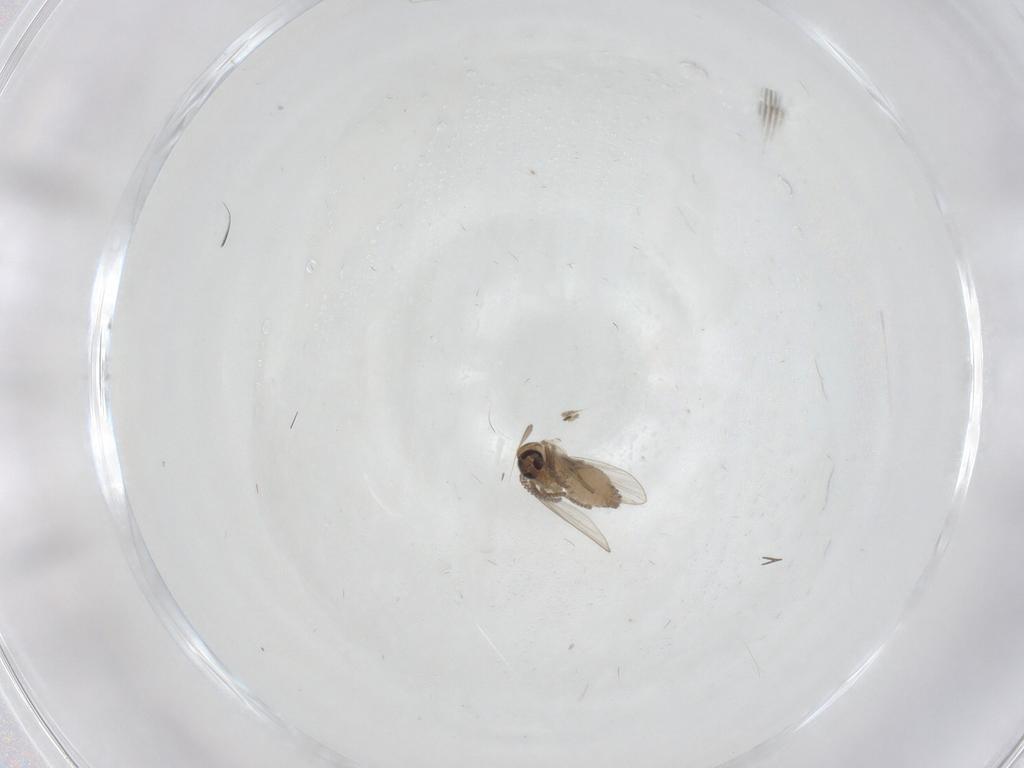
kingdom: Animalia
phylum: Arthropoda
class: Insecta
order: Diptera
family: Psychodidae
